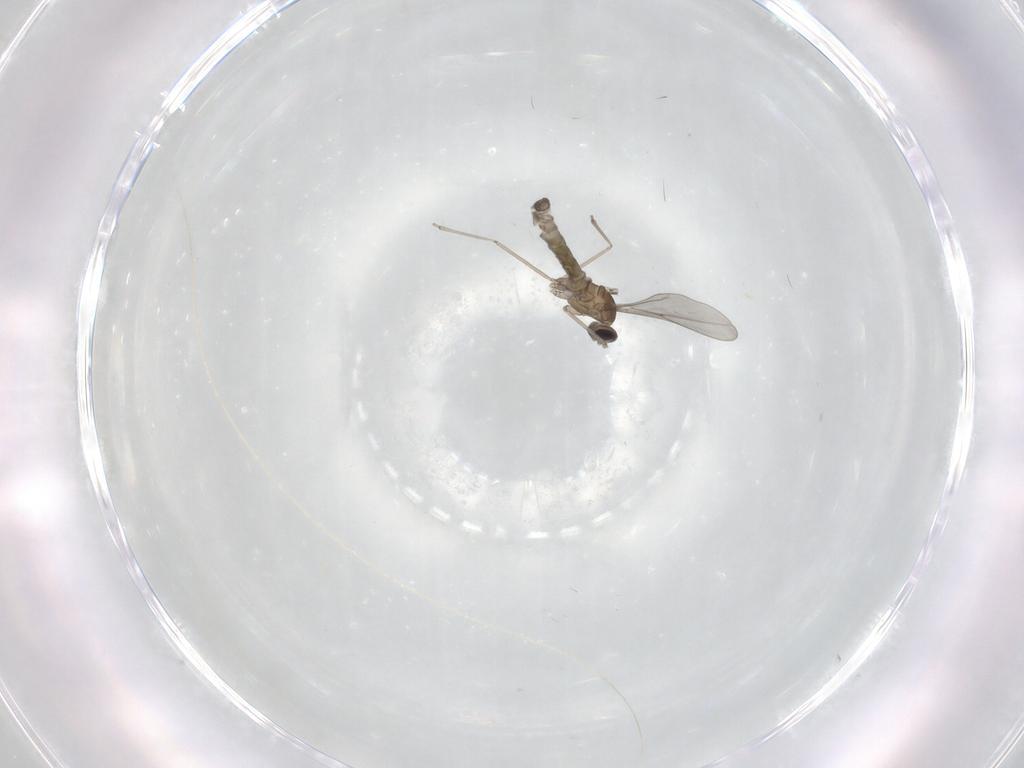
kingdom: Animalia
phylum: Arthropoda
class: Insecta
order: Diptera
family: Cecidomyiidae
